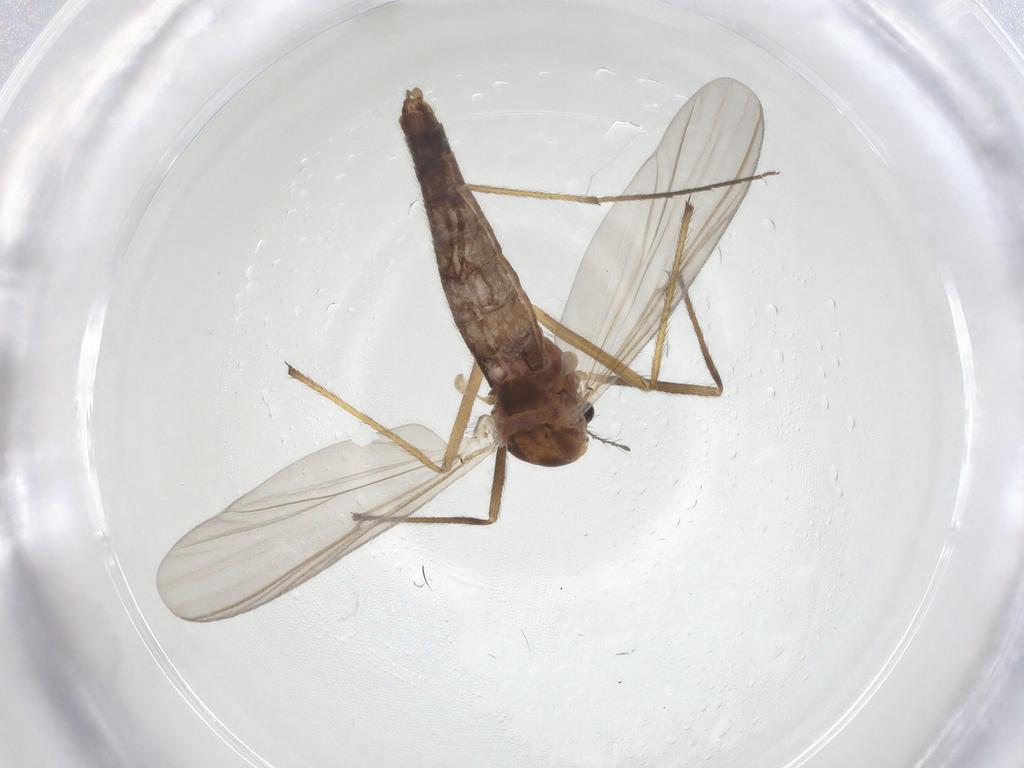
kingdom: Animalia
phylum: Arthropoda
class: Insecta
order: Diptera
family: Chironomidae
